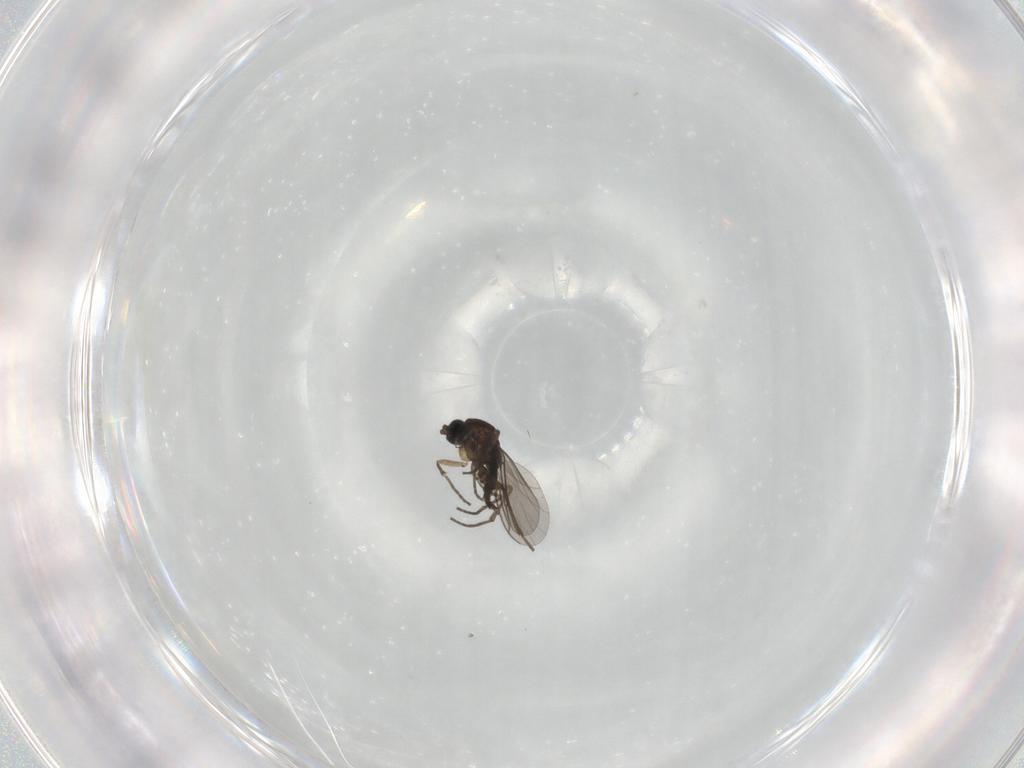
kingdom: Animalia
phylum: Arthropoda
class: Insecta
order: Diptera
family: Sciaridae
